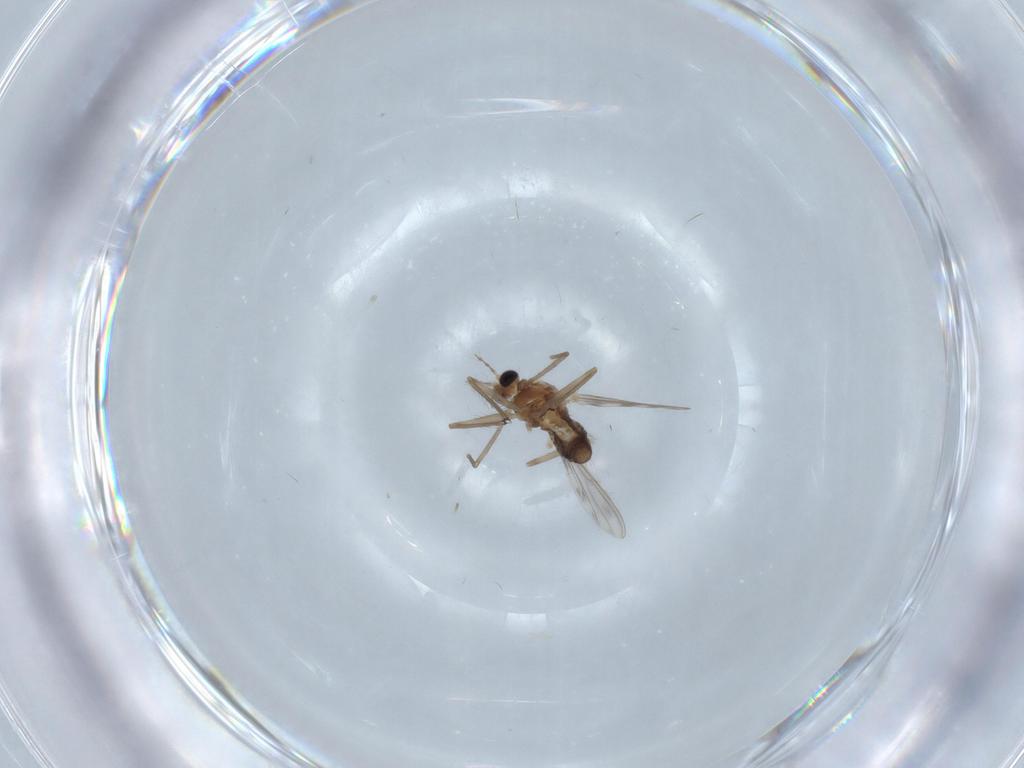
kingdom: Animalia
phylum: Arthropoda
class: Insecta
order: Diptera
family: Chironomidae
